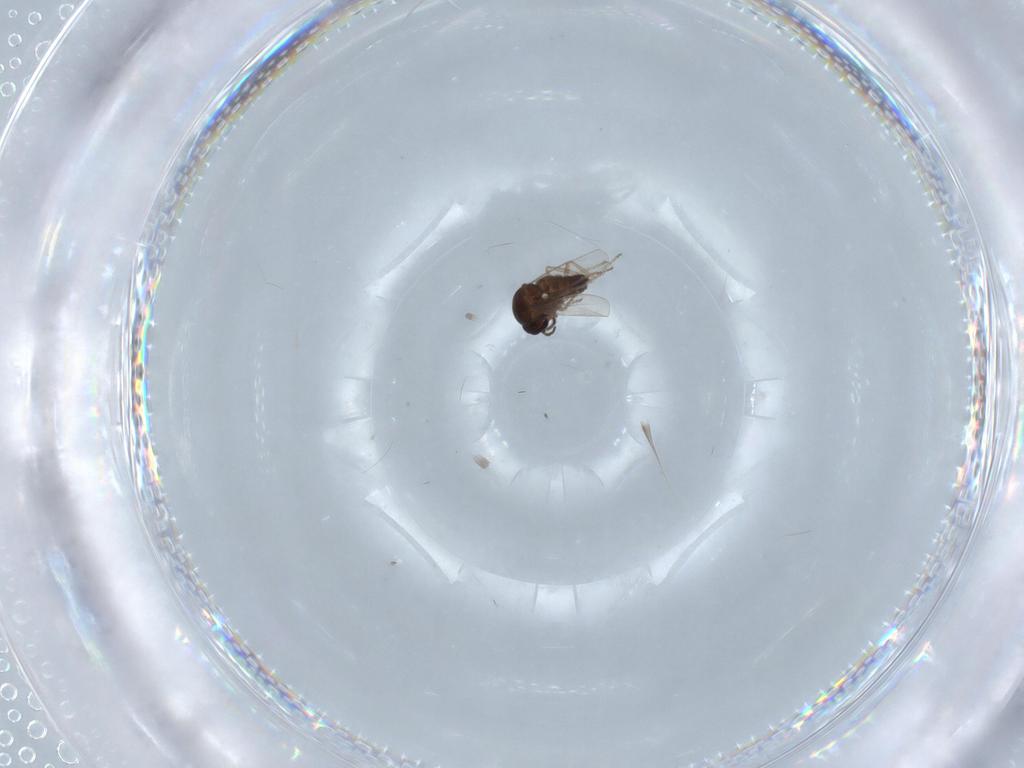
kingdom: Animalia
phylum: Arthropoda
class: Insecta
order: Diptera
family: Ceratopogonidae
